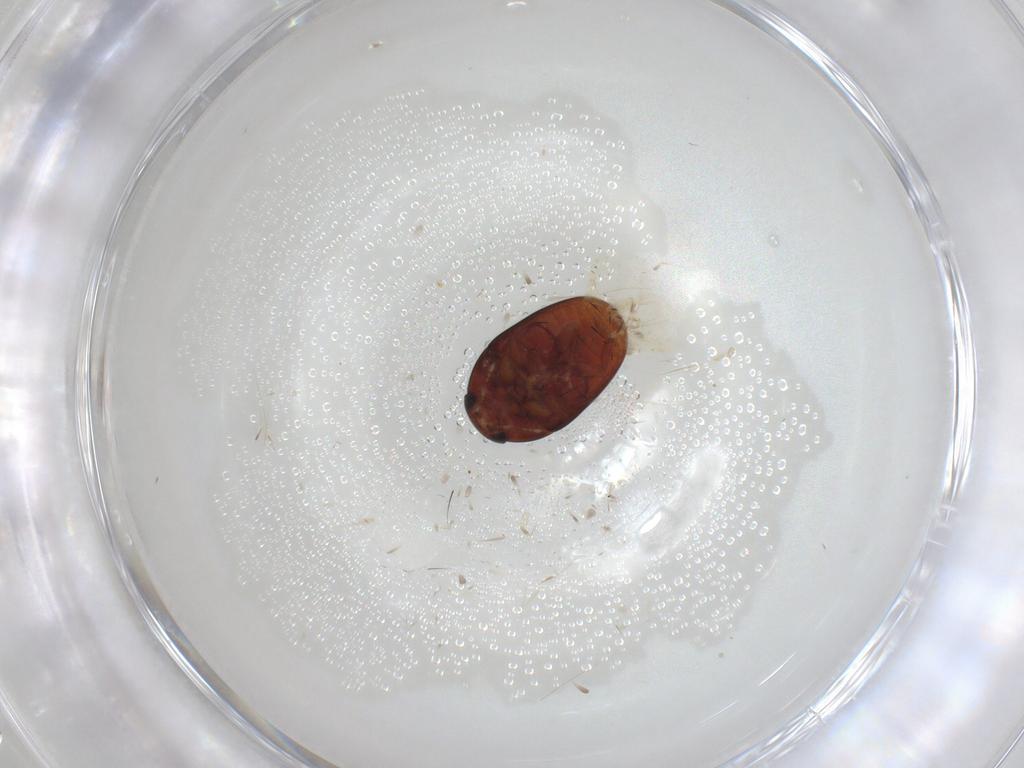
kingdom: Animalia
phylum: Arthropoda
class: Insecta
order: Coleoptera
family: Phalacridae
